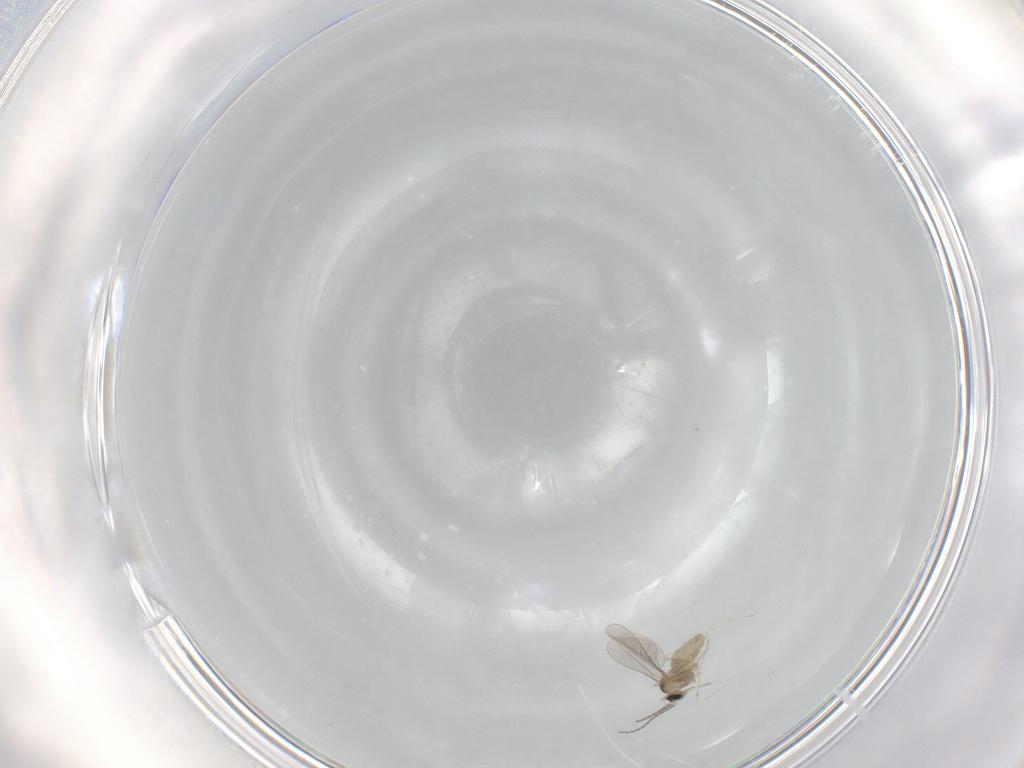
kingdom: Animalia
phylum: Arthropoda
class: Insecta
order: Diptera
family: Cecidomyiidae
